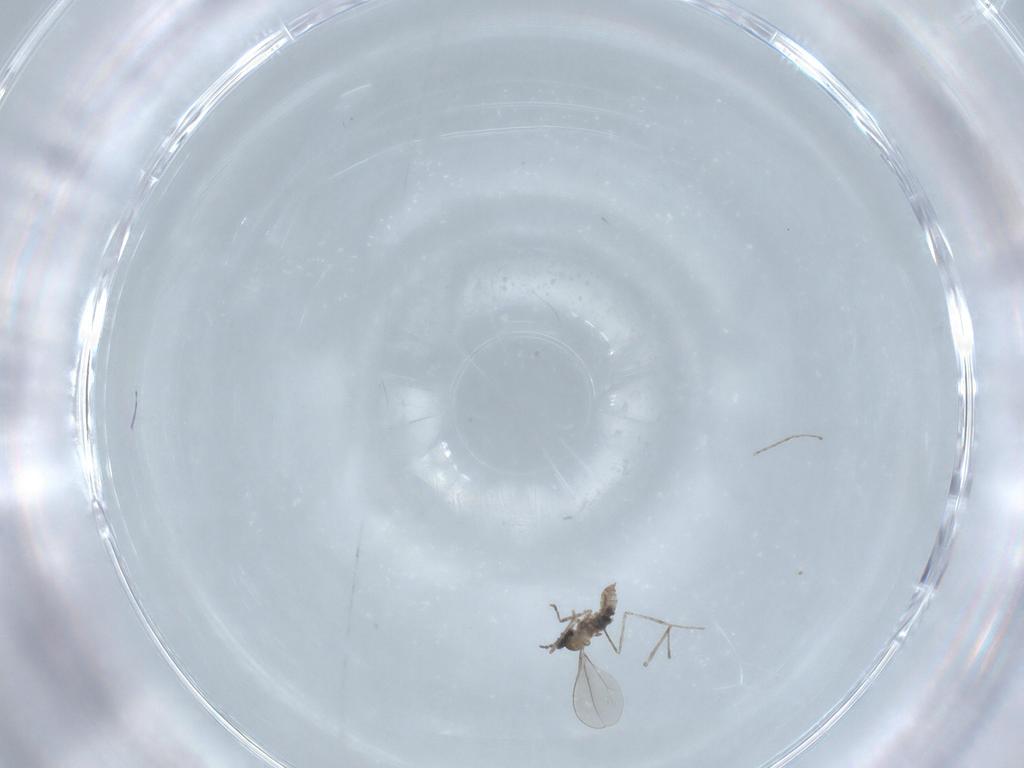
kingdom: Animalia
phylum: Arthropoda
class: Insecta
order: Diptera
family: Cecidomyiidae
